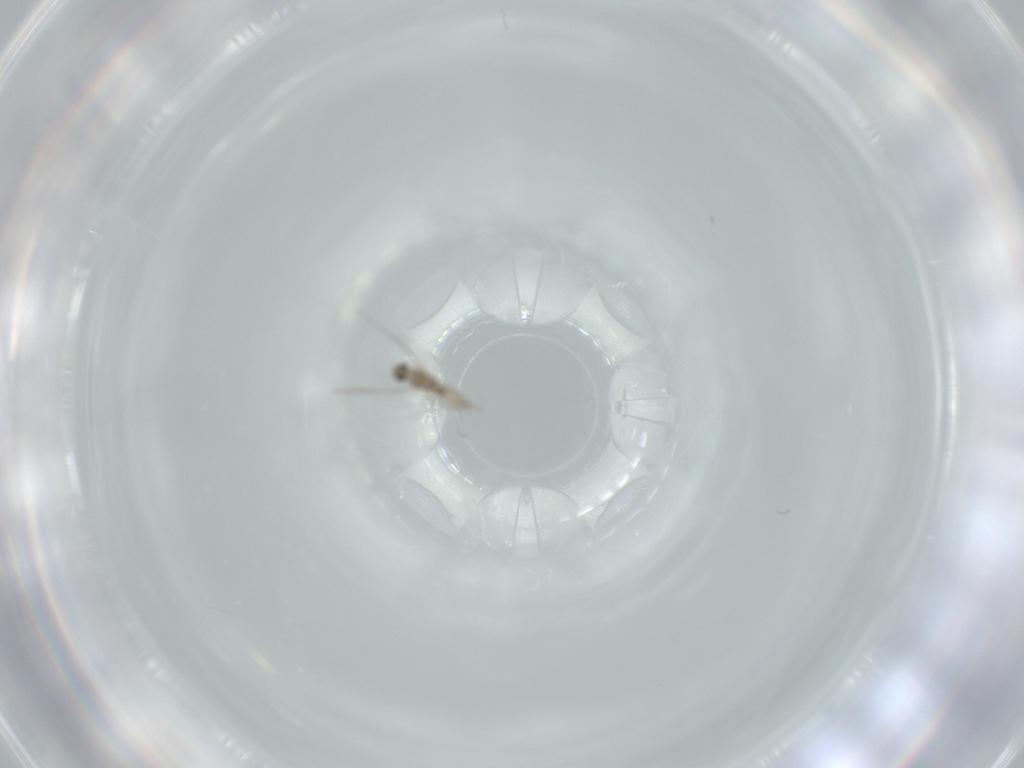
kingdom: Animalia
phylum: Arthropoda
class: Insecta
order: Diptera
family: Cecidomyiidae
